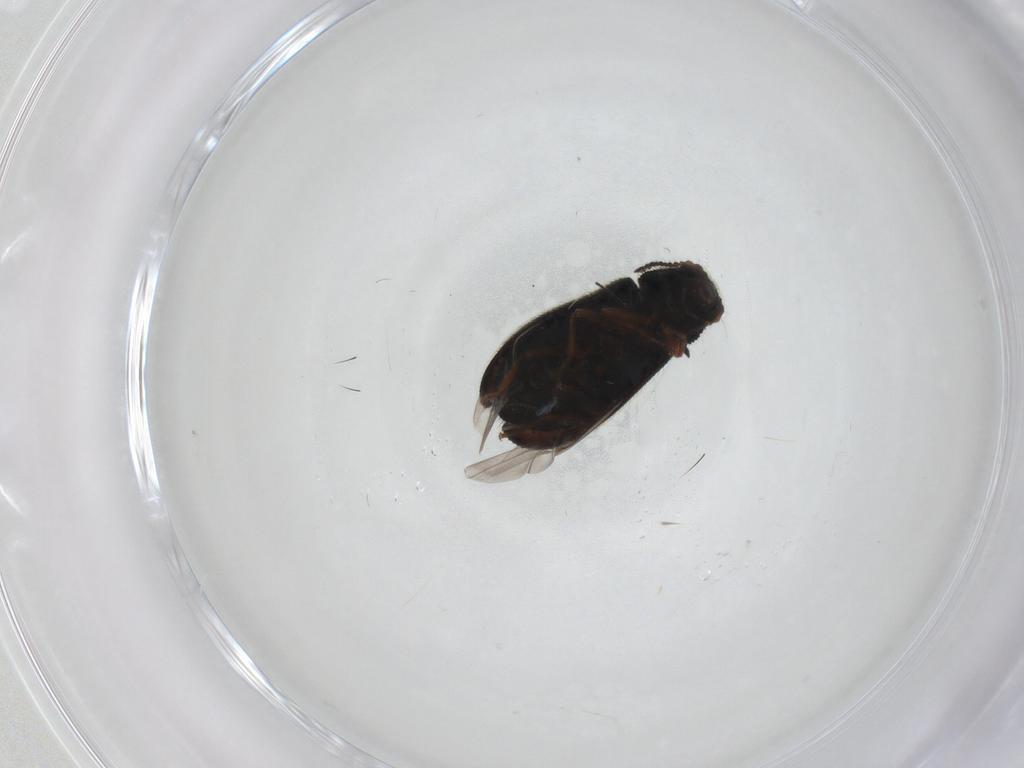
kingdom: Animalia
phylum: Arthropoda
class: Insecta
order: Coleoptera
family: Melyridae
